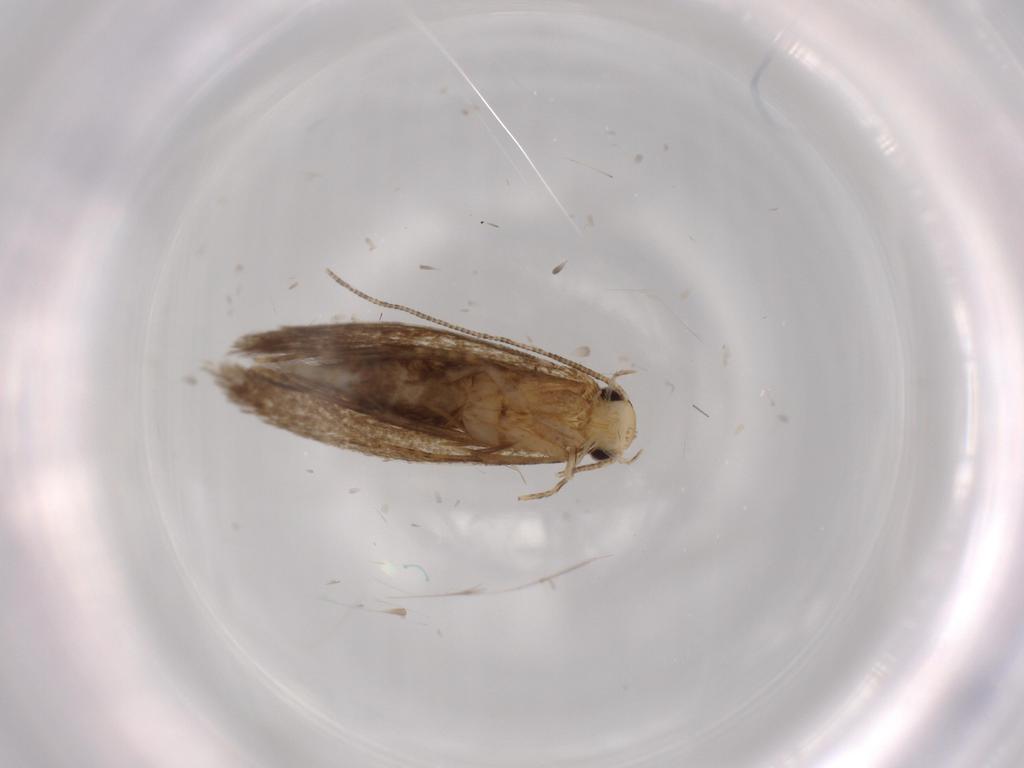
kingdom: Animalia
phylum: Arthropoda
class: Insecta
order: Lepidoptera
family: Tineidae
